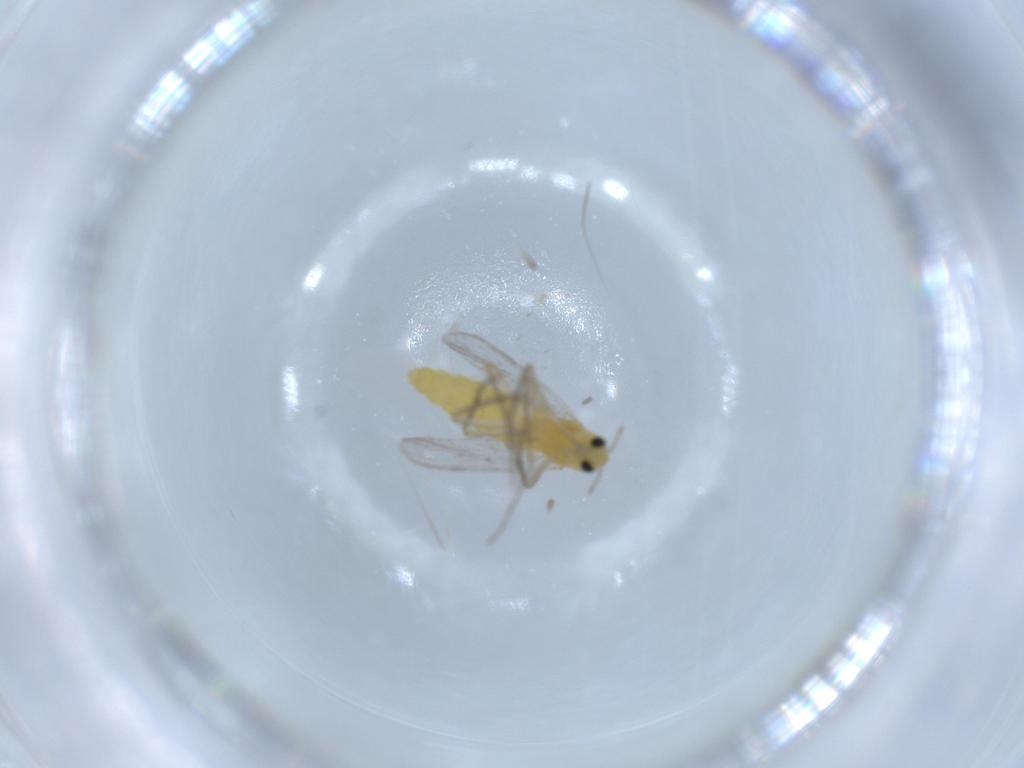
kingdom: Animalia
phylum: Arthropoda
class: Insecta
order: Diptera
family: Chironomidae
